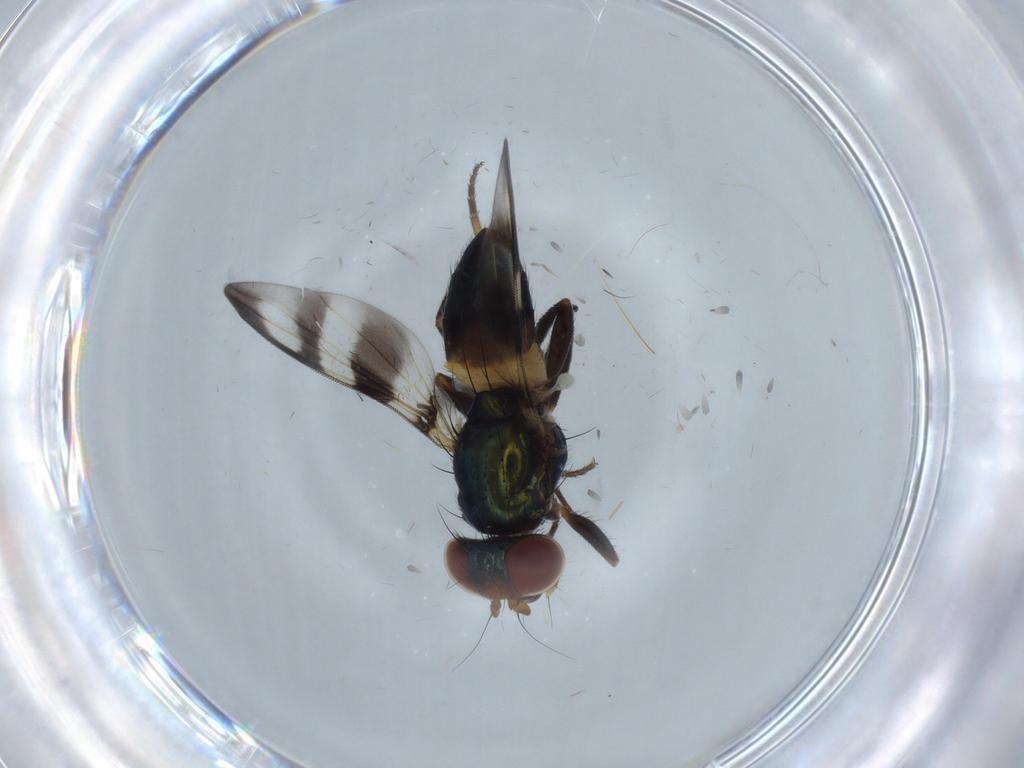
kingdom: Animalia
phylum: Arthropoda
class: Insecta
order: Diptera
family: Ulidiidae
